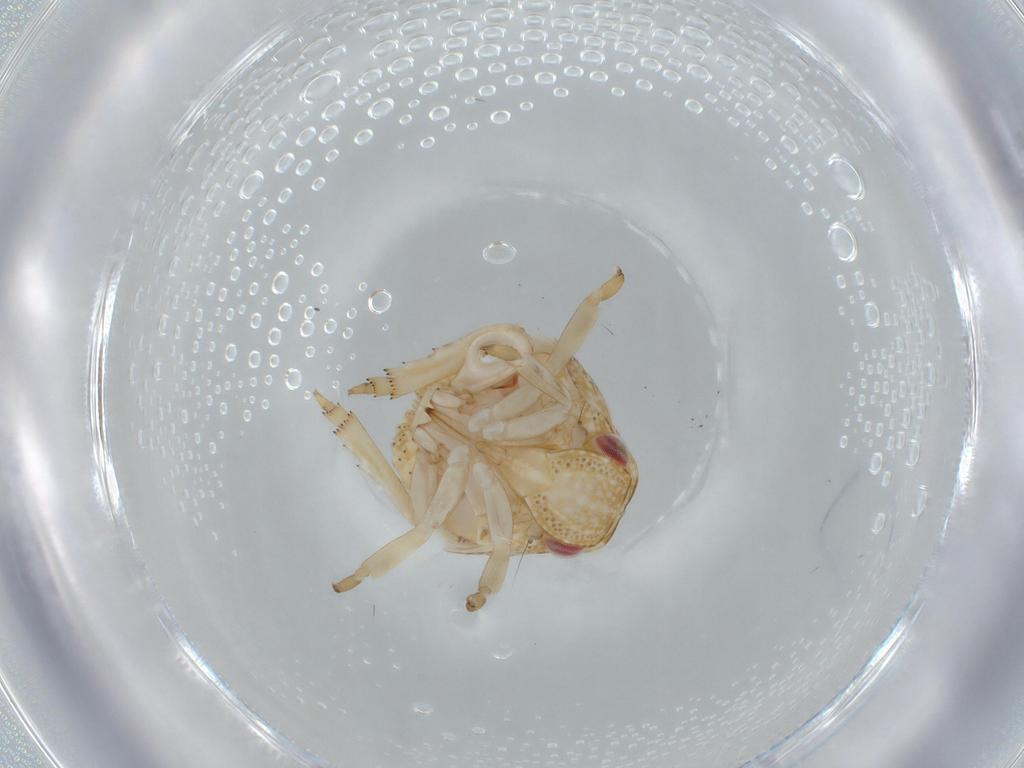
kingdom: Animalia
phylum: Arthropoda
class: Insecta
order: Hemiptera
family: Acanaloniidae
